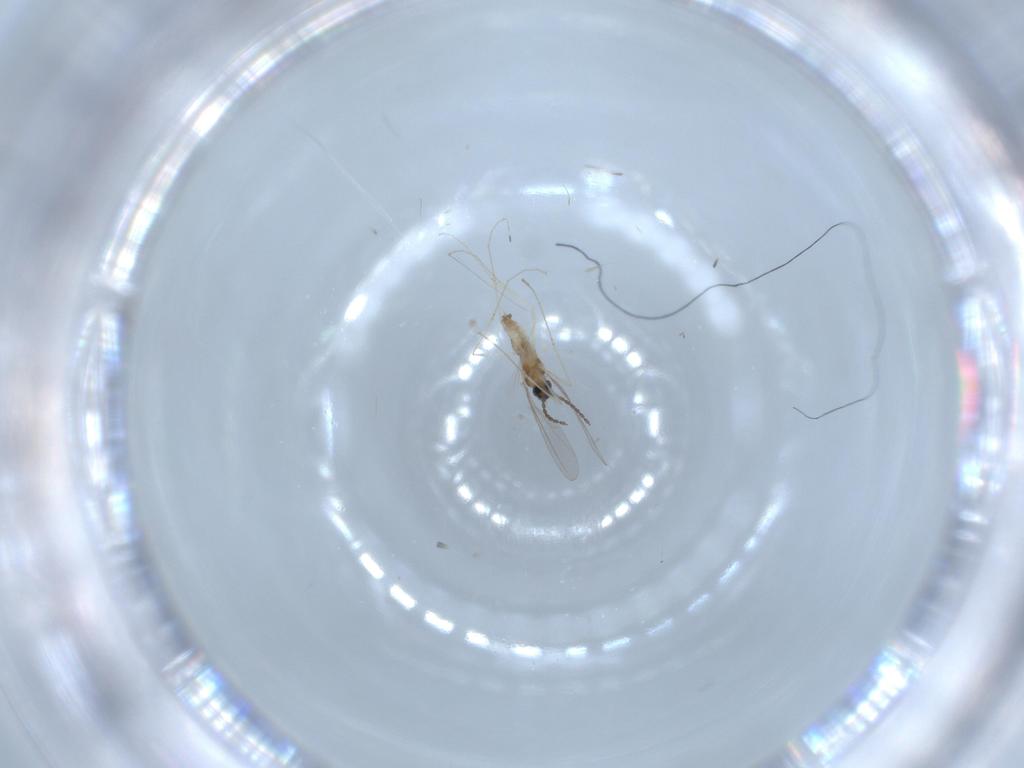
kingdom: Animalia
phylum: Arthropoda
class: Insecta
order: Diptera
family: Cecidomyiidae
